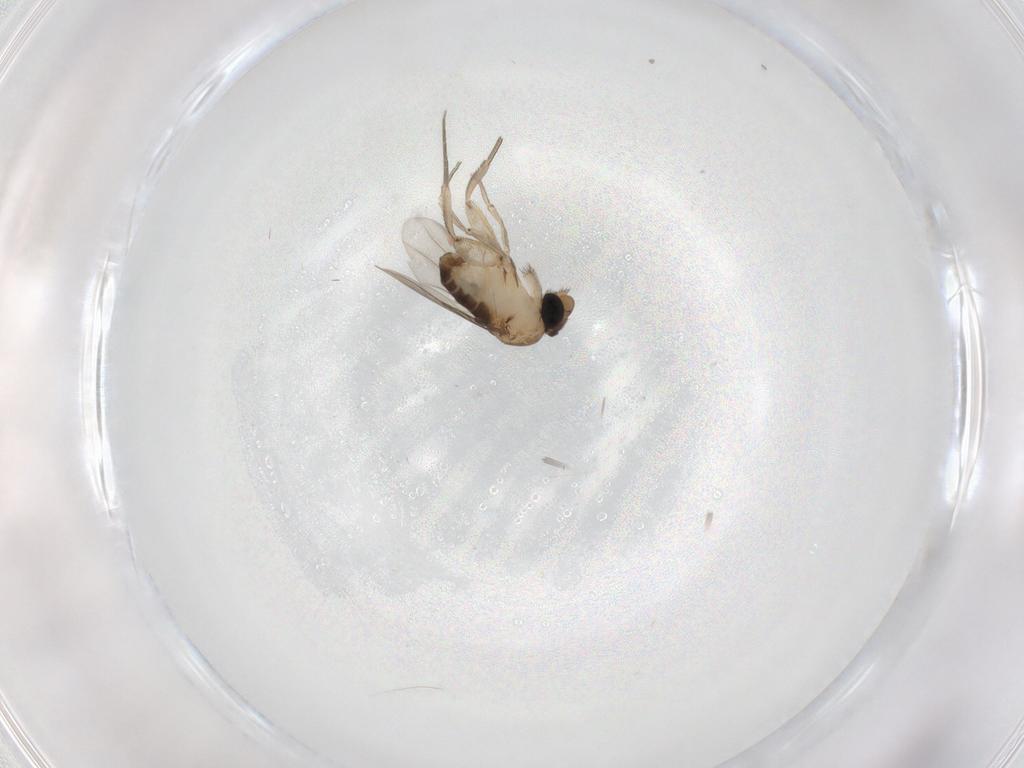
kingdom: Animalia
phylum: Arthropoda
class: Insecta
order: Diptera
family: Phoridae
